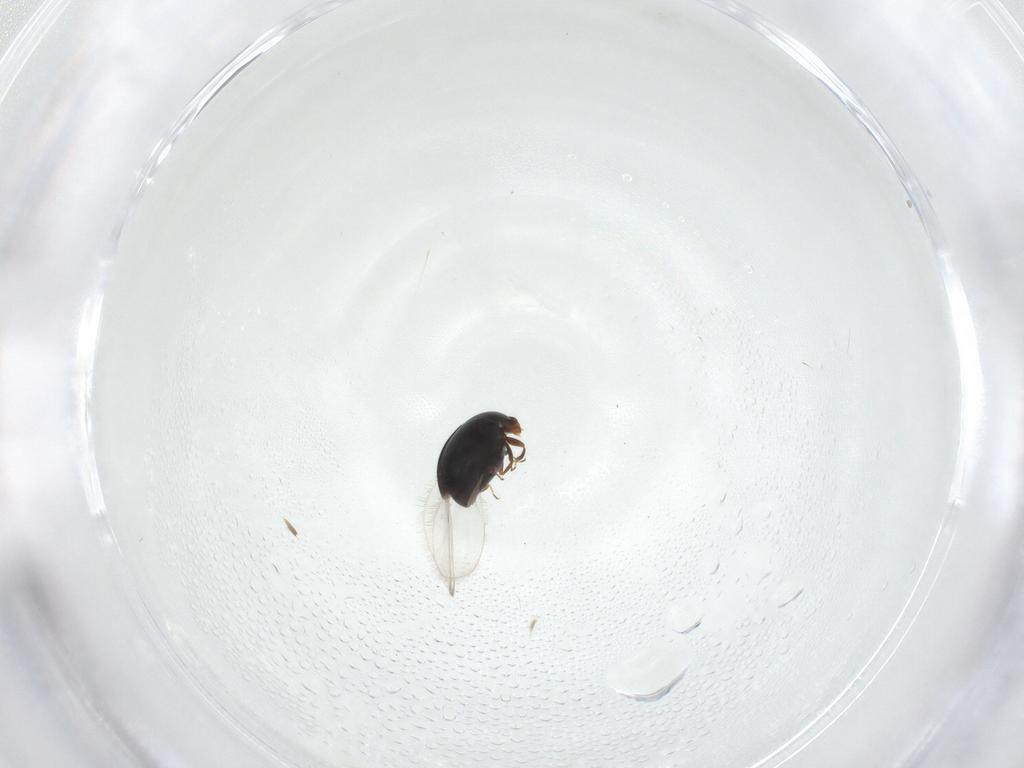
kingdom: Animalia
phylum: Arthropoda
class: Insecta
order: Coleoptera
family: Corylophidae
